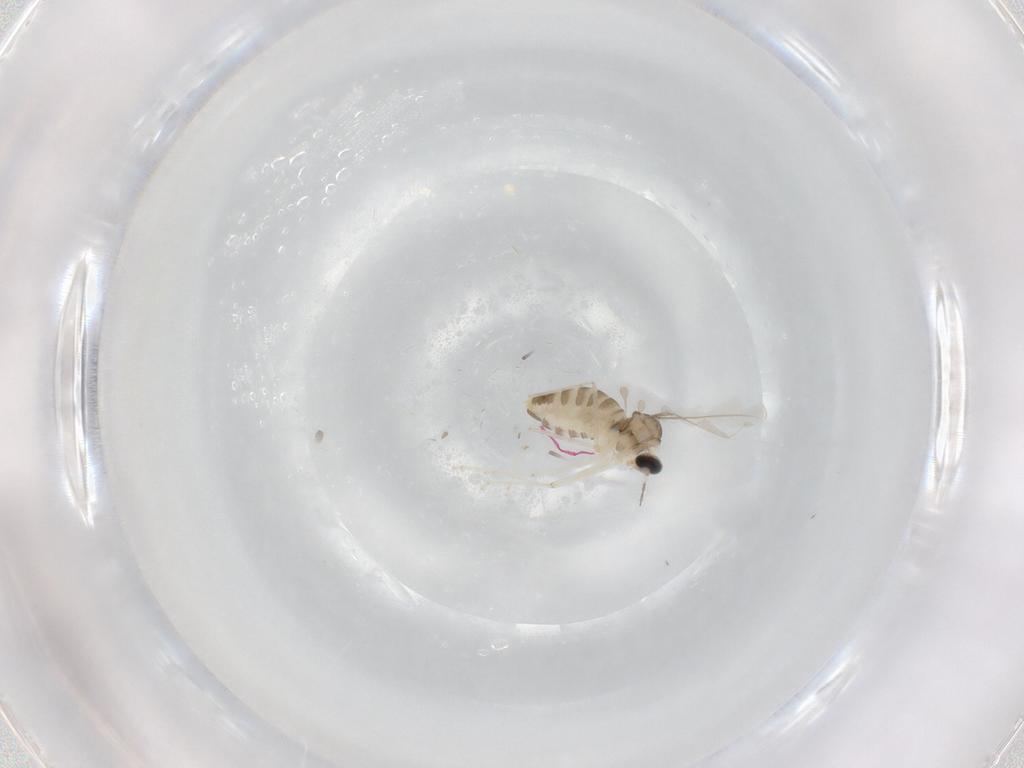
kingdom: Animalia
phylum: Arthropoda
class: Insecta
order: Diptera
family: Cecidomyiidae
